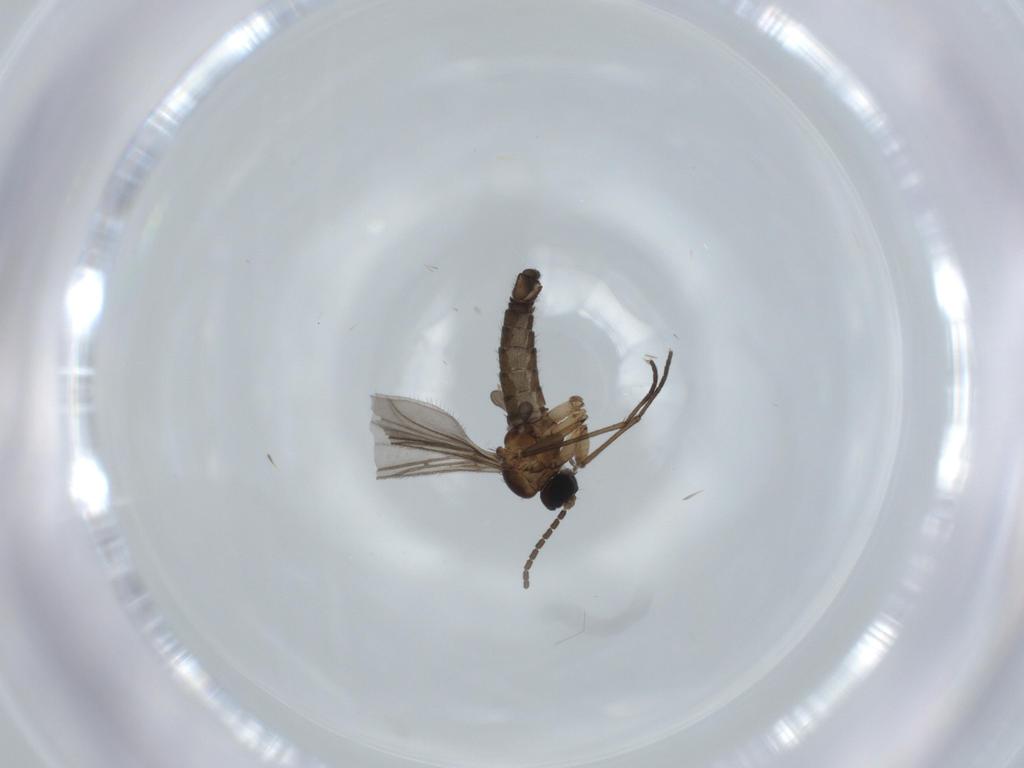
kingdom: Animalia
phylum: Arthropoda
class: Insecta
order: Diptera
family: Sciaridae
